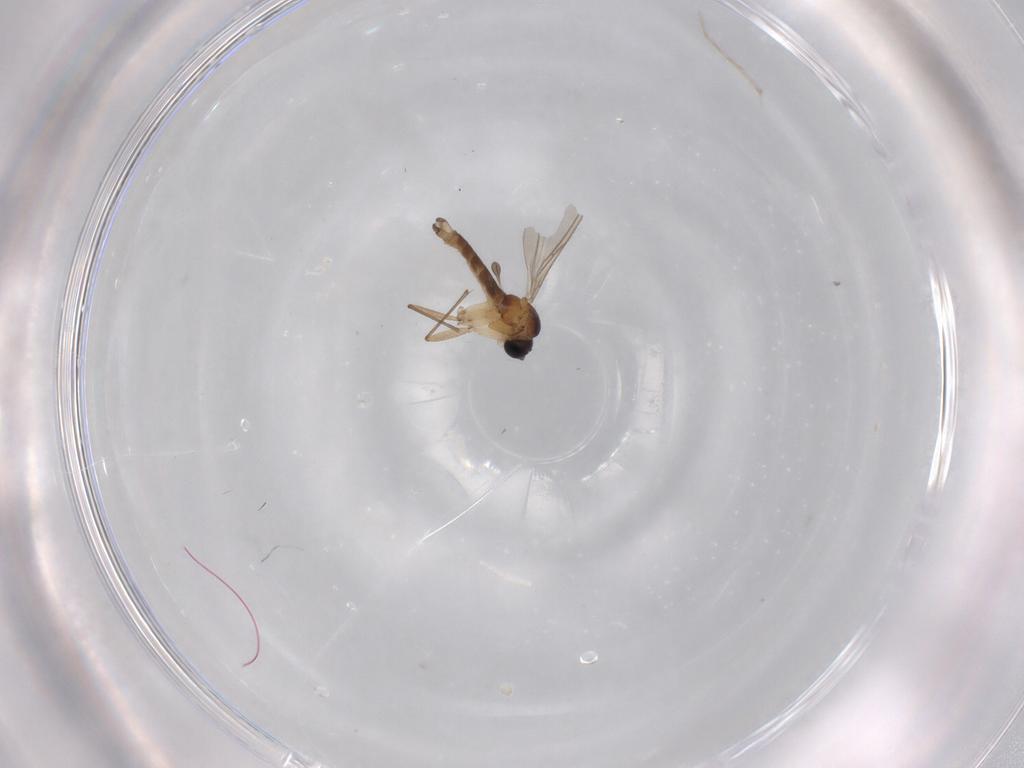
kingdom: Animalia
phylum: Arthropoda
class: Insecta
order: Diptera
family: Sciaridae
